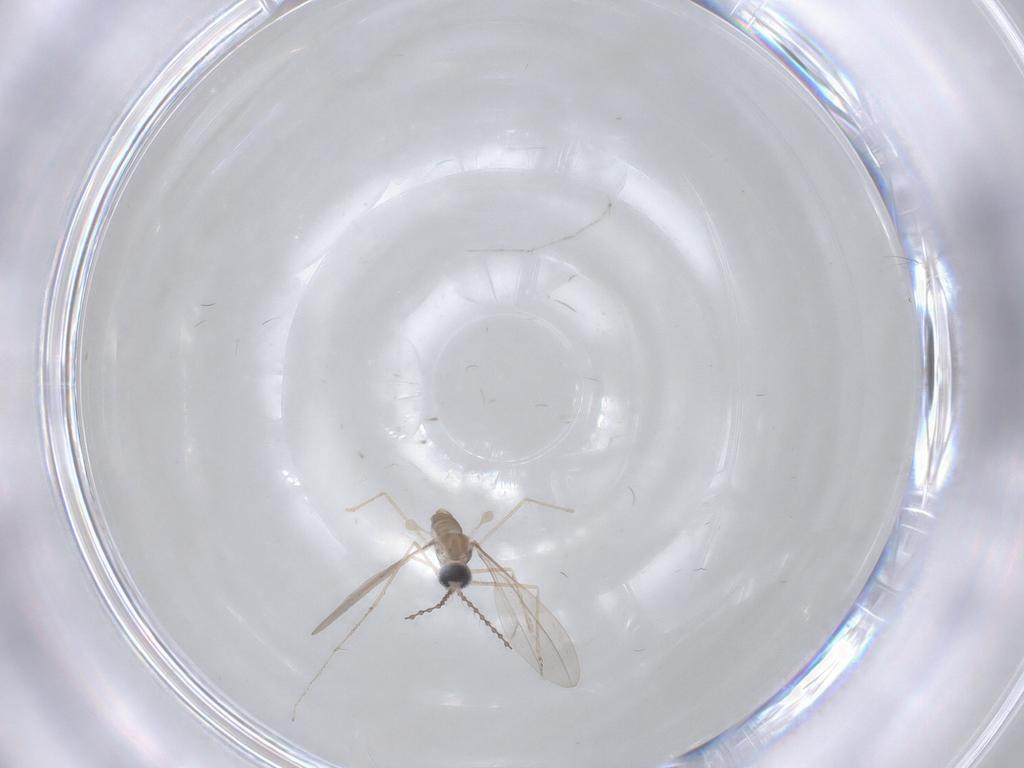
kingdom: Animalia
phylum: Arthropoda
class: Insecta
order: Diptera
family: Cecidomyiidae
